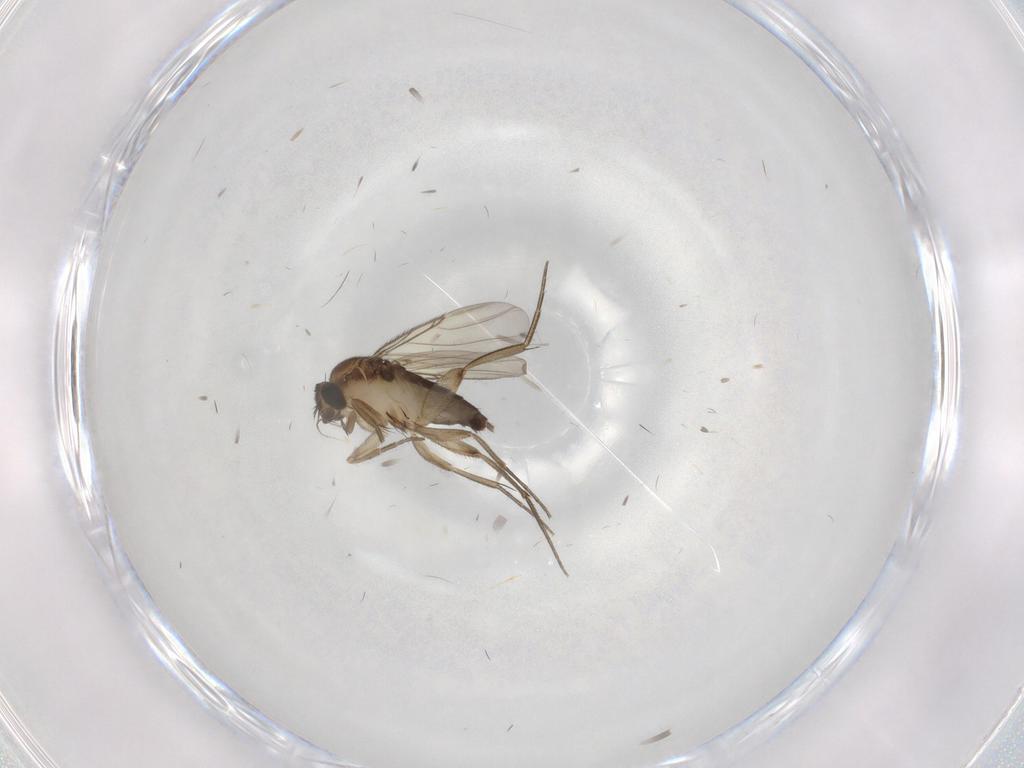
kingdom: Animalia
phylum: Arthropoda
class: Insecta
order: Diptera
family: Phoridae
